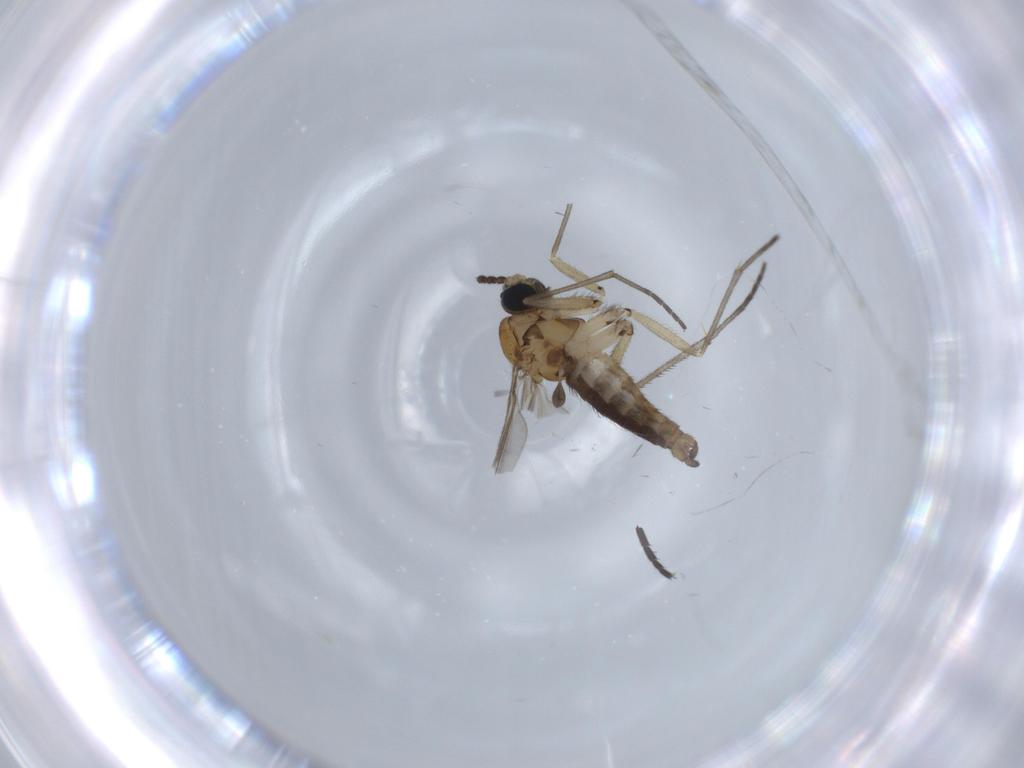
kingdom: Animalia
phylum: Arthropoda
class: Insecta
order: Diptera
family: Sciaridae
